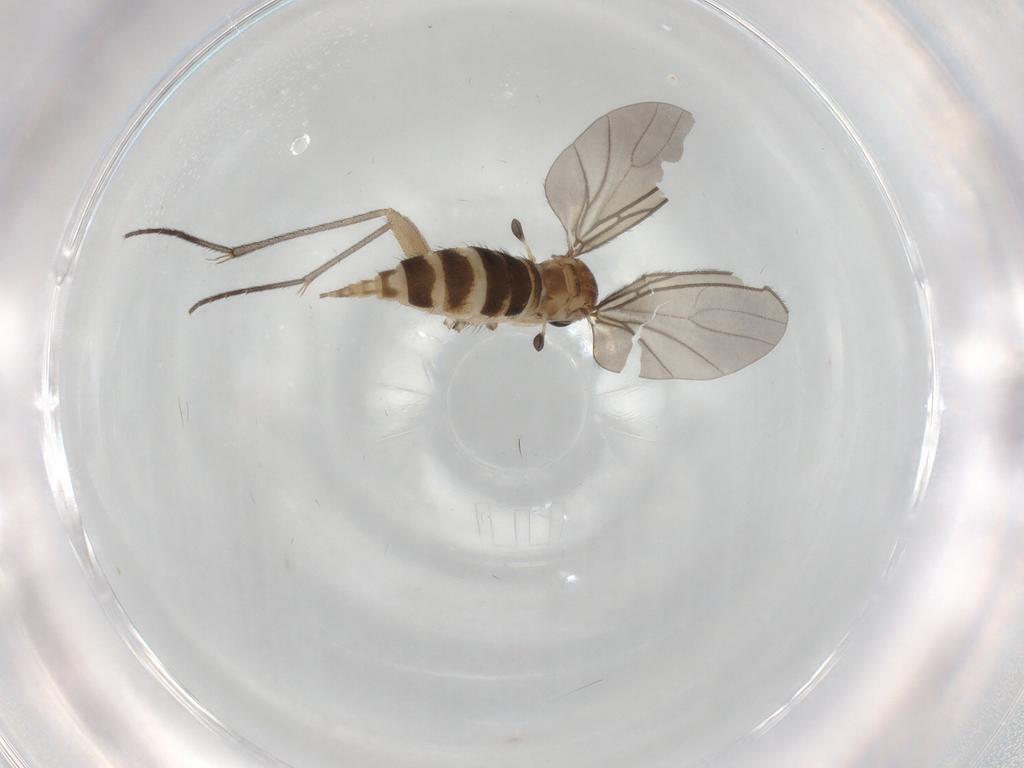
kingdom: Animalia
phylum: Arthropoda
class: Insecta
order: Diptera
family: Sciaridae
